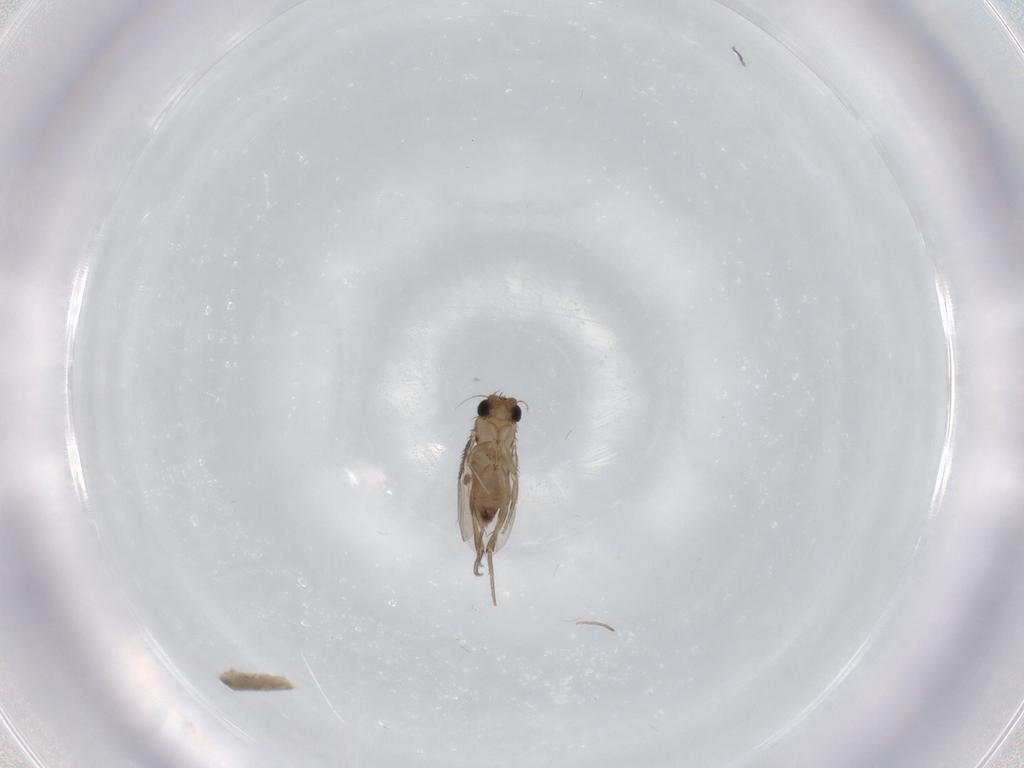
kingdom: Animalia
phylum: Arthropoda
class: Insecta
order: Diptera
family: Phoridae
